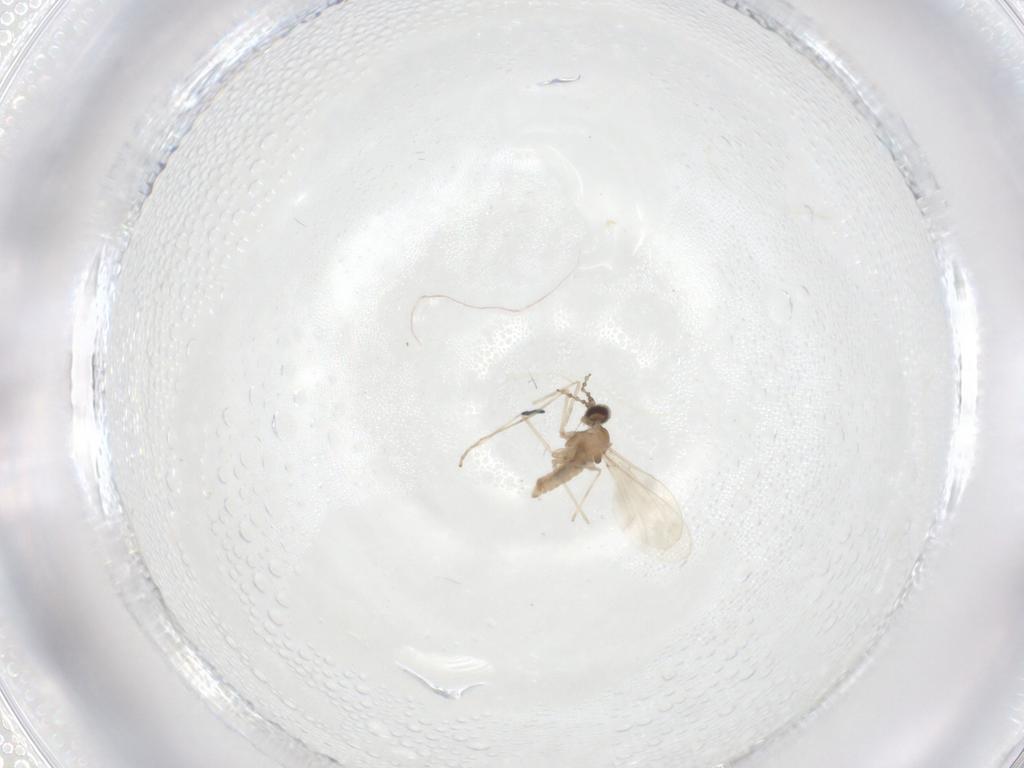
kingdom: Animalia
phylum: Arthropoda
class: Insecta
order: Diptera
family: Cecidomyiidae
